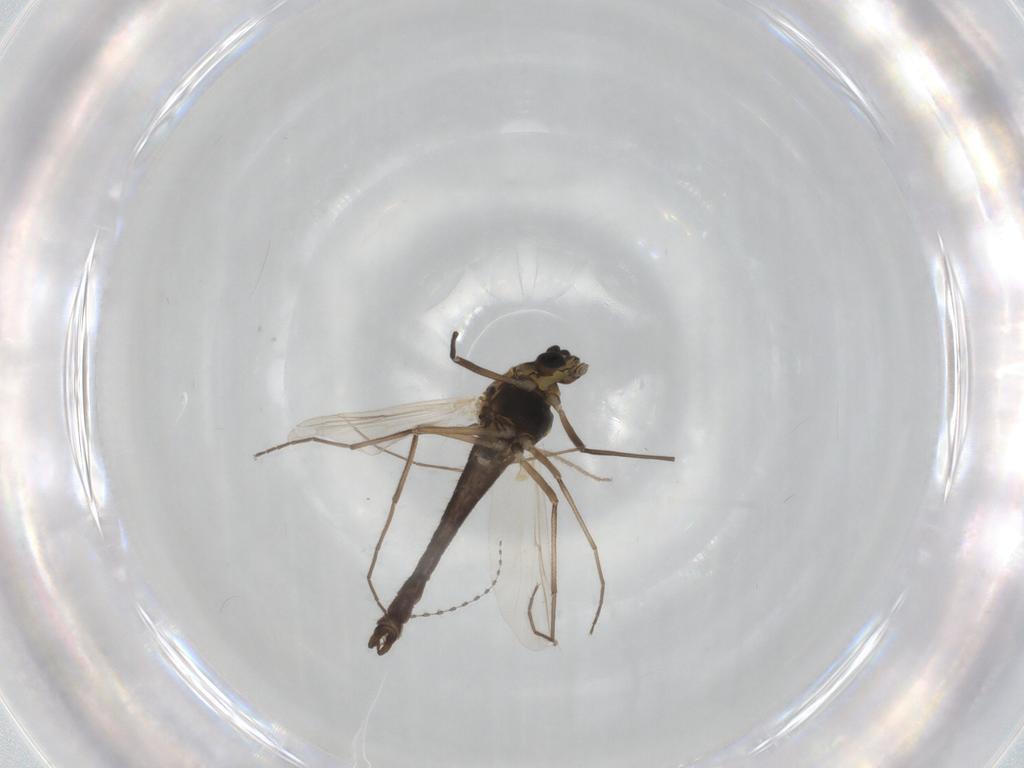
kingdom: Animalia
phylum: Arthropoda
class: Insecta
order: Diptera
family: Chironomidae
